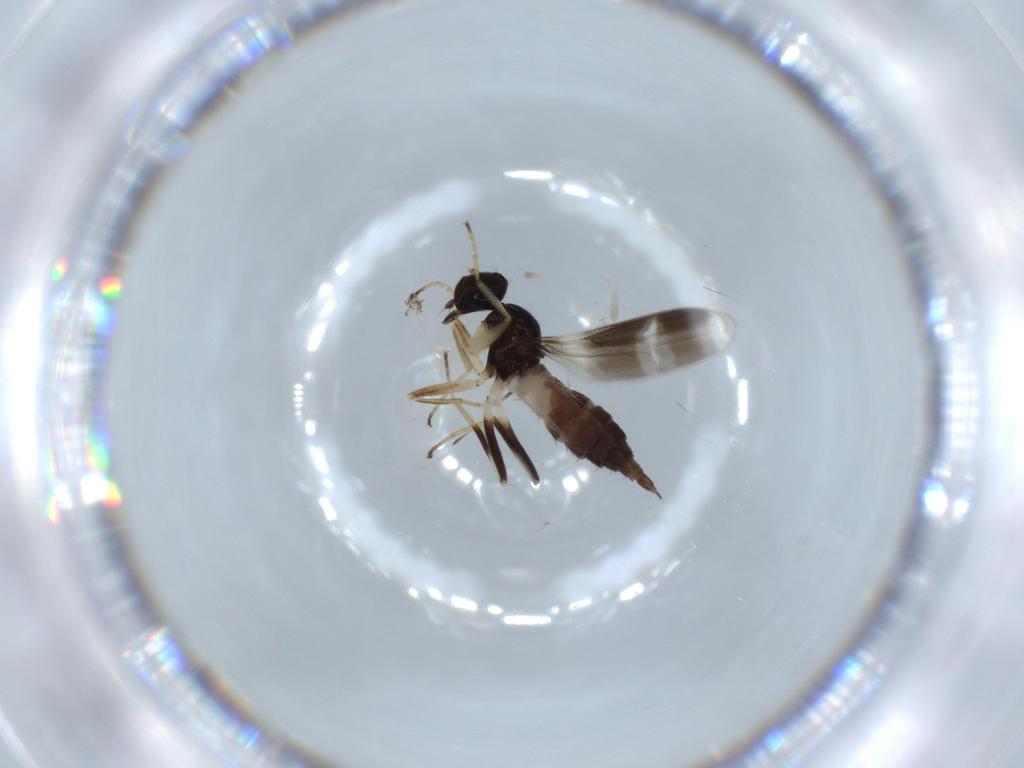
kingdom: Animalia
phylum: Arthropoda
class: Insecta
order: Diptera
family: Hybotidae
